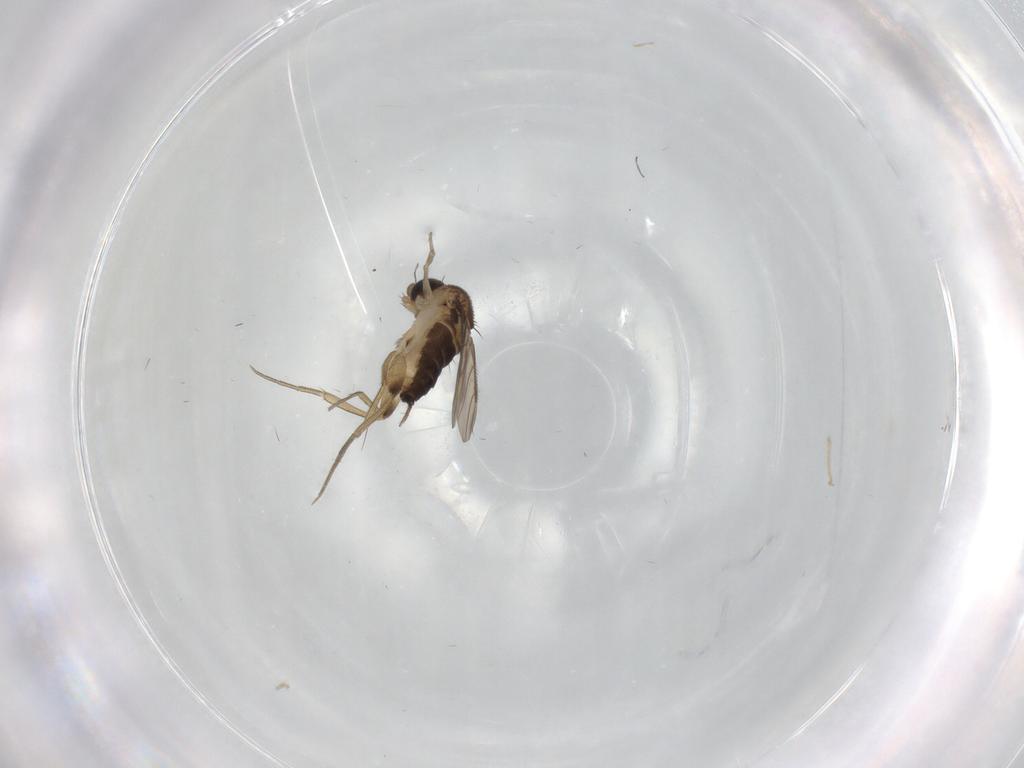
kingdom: Animalia
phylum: Arthropoda
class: Insecta
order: Diptera
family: Phoridae
